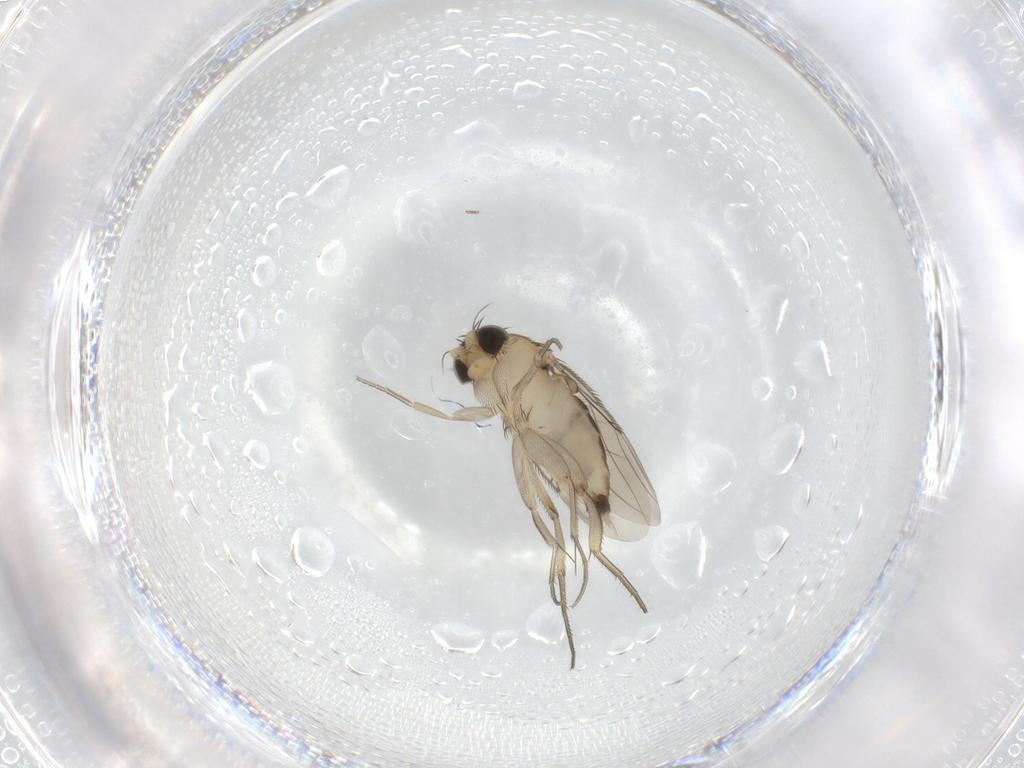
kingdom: Animalia
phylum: Arthropoda
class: Insecta
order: Diptera
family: Phoridae
